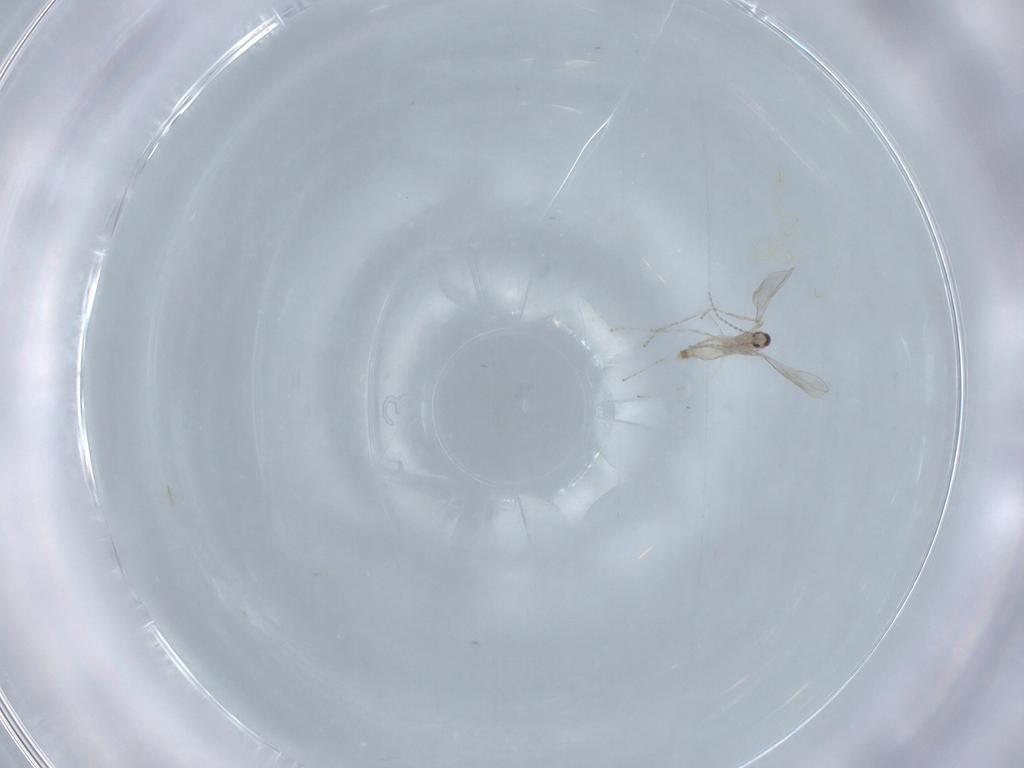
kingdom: Animalia
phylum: Arthropoda
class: Insecta
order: Diptera
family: Cecidomyiidae
